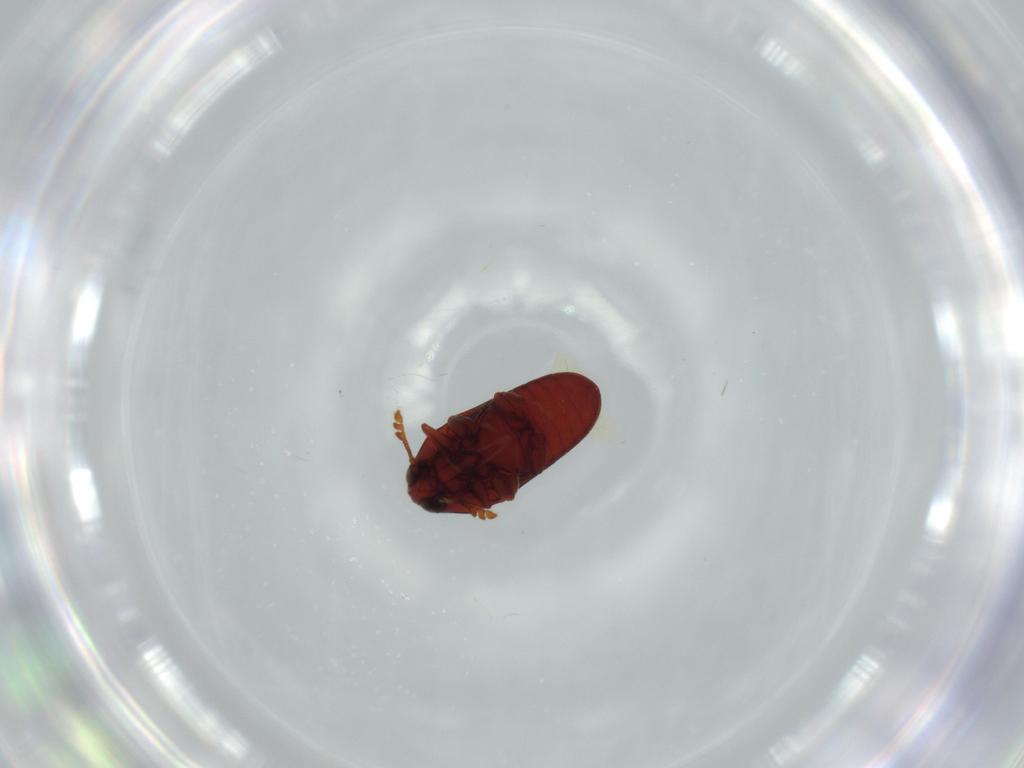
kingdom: Animalia
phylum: Arthropoda
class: Insecta
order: Coleoptera
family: Throscidae
